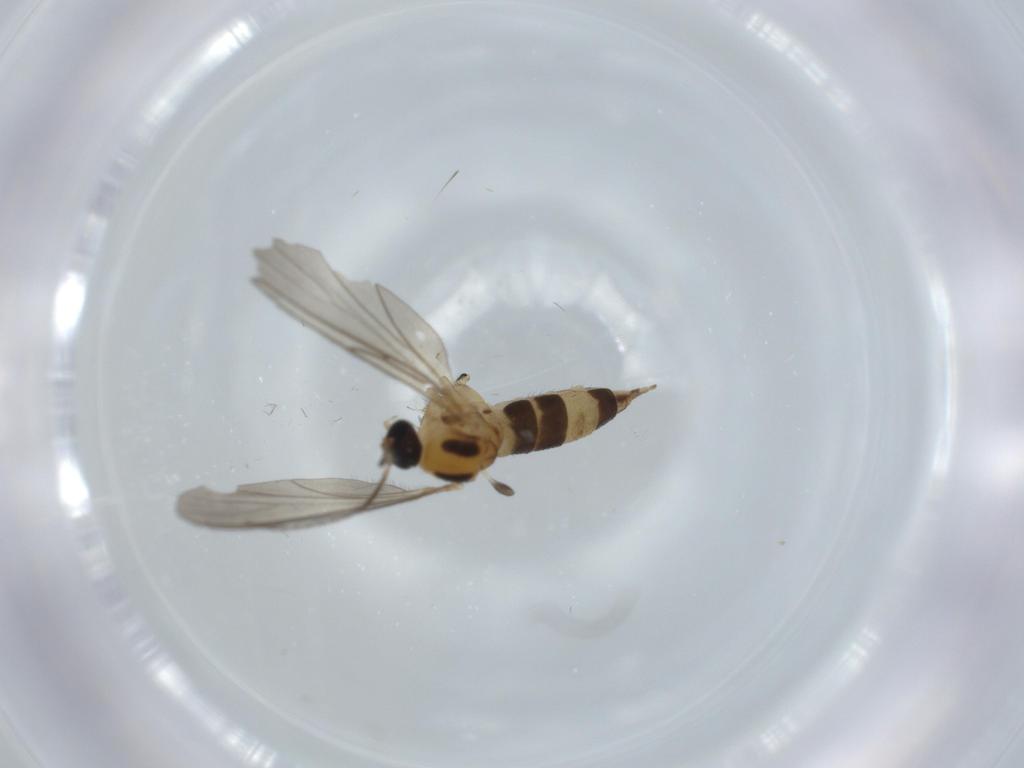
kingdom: Animalia
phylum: Arthropoda
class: Insecta
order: Diptera
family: Sciaridae
